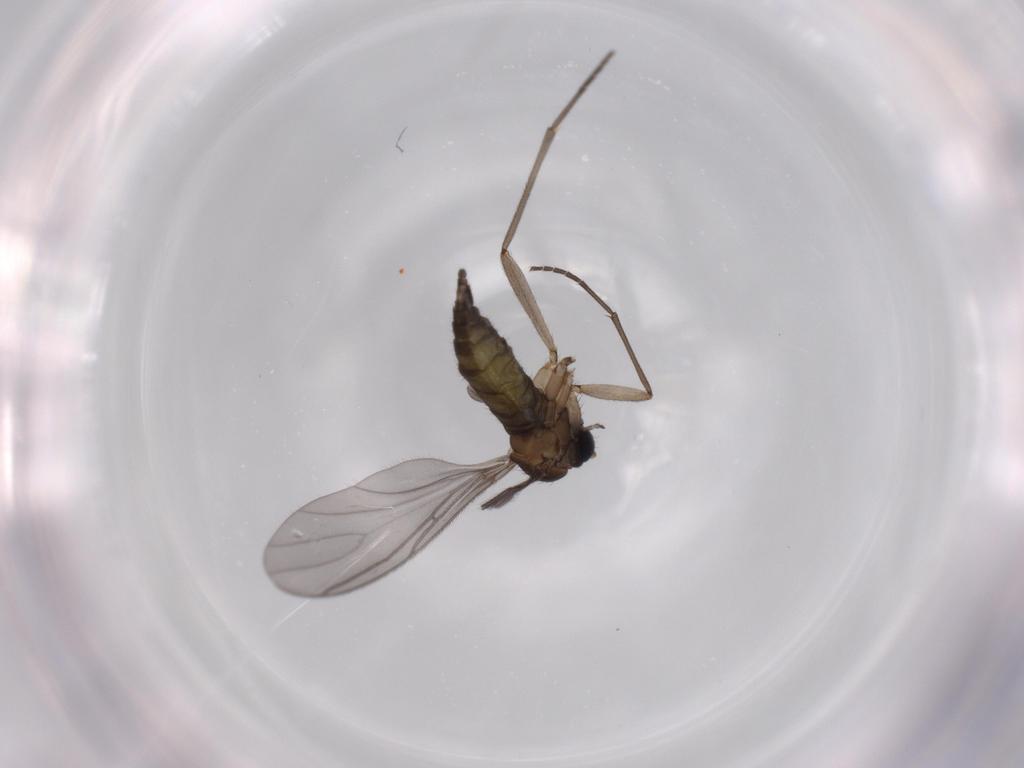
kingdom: Animalia
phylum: Arthropoda
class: Insecta
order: Diptera
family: Sciaridae
